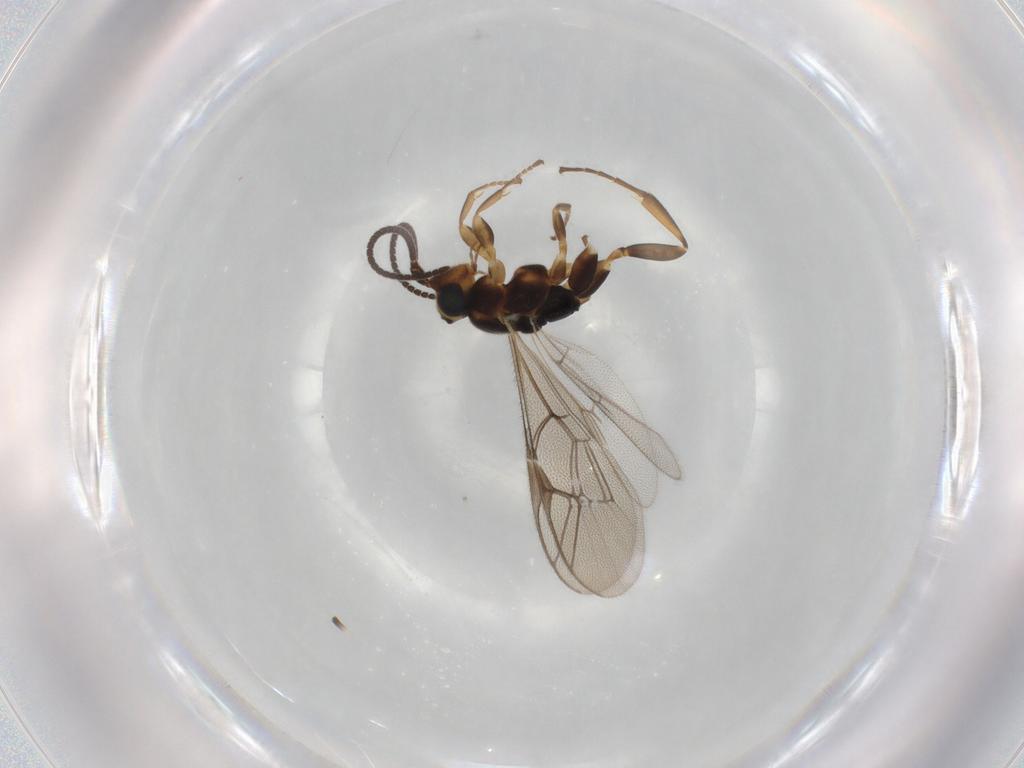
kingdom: Animalia
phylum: Arthropoda
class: Insecta
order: Hymenoptera
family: Ichneumonidae
